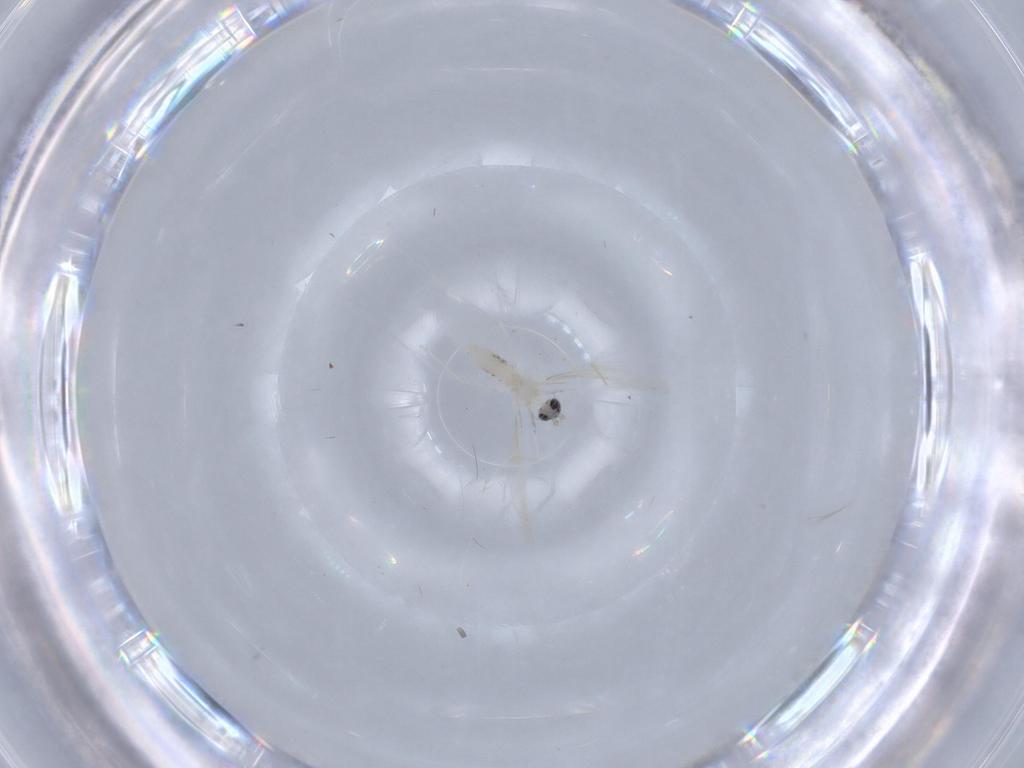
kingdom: Animalia
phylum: Arthropoda
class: Insecta
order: Diptera
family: Cecidomyiidae
